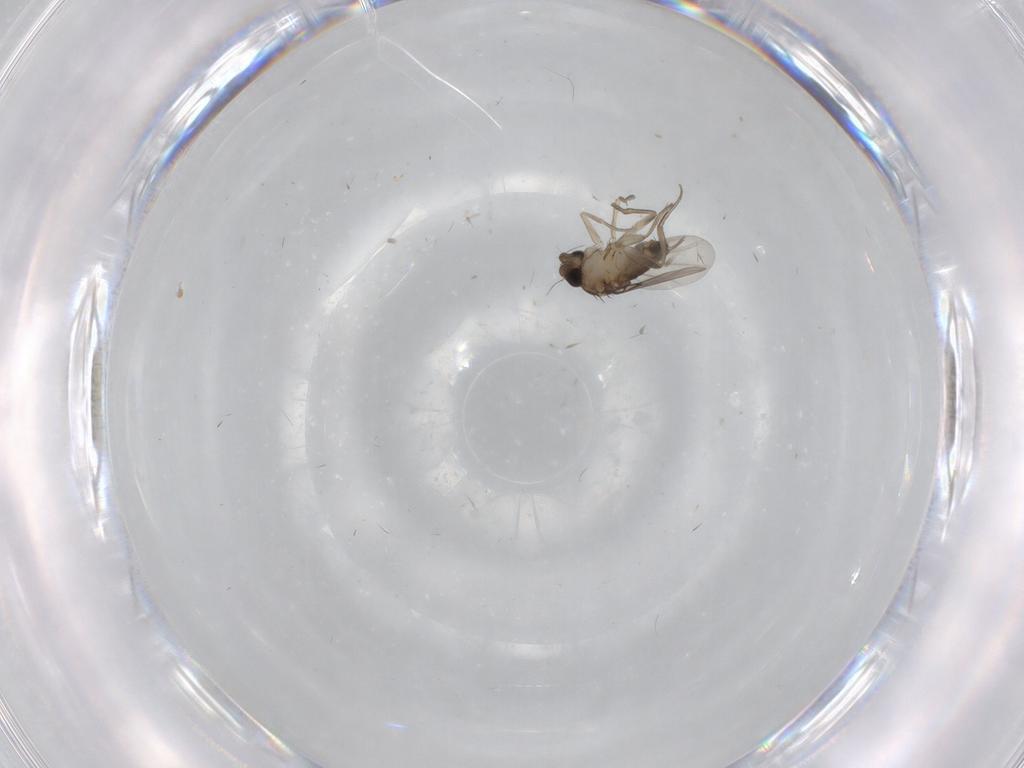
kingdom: Animalia
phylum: Arthropoda
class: Insecta
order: Diptera
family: Phoridae
